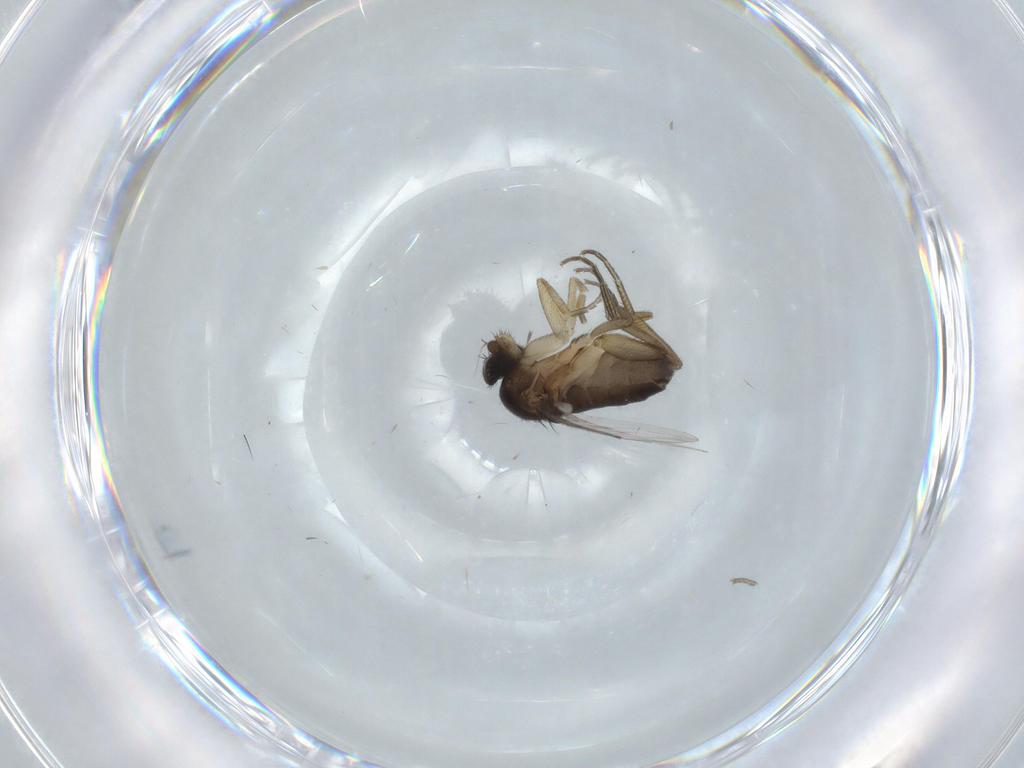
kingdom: Animalia
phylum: Arthropoda
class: Insecta
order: Diptera
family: Phoridae
